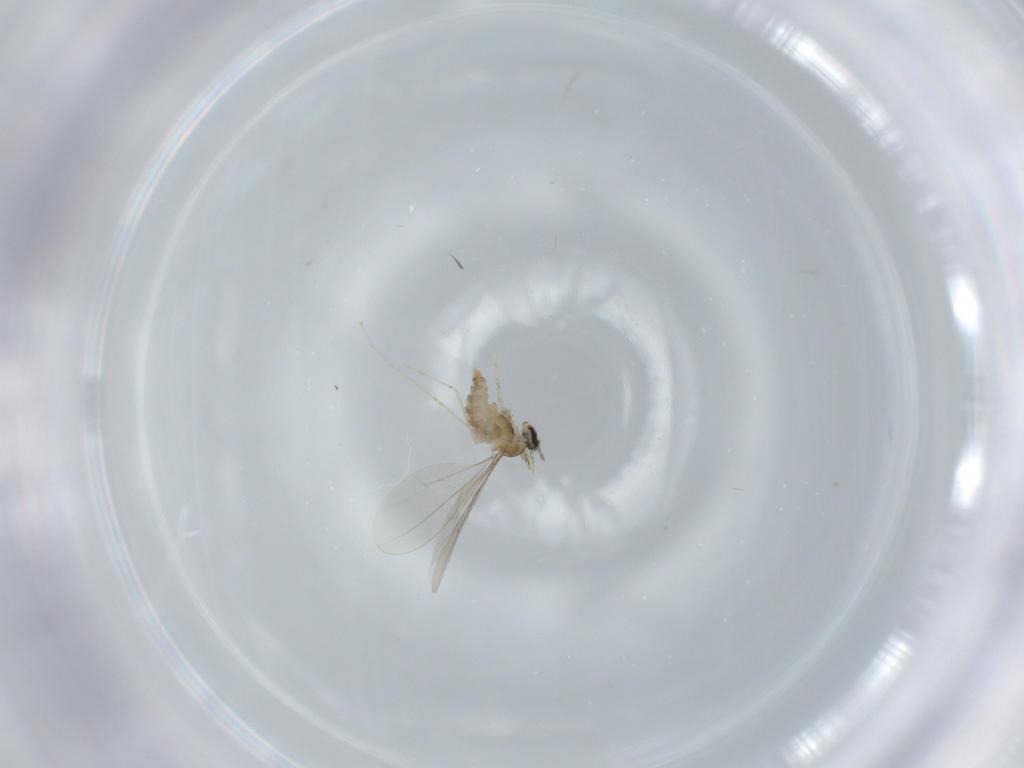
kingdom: Animalia
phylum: Arthropoda
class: Insecta
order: Diptera
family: Cecidomyiidae
